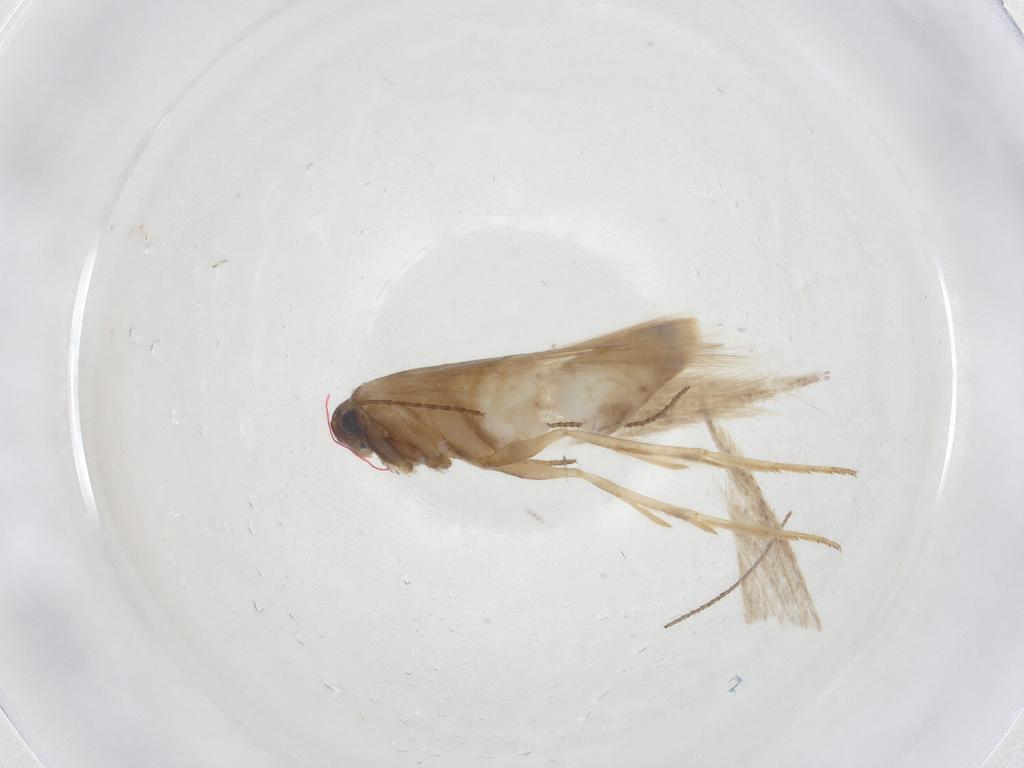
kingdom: Animalia
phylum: Arthropoda
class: Insecta
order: Lepidoptera
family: Gelechiidae
